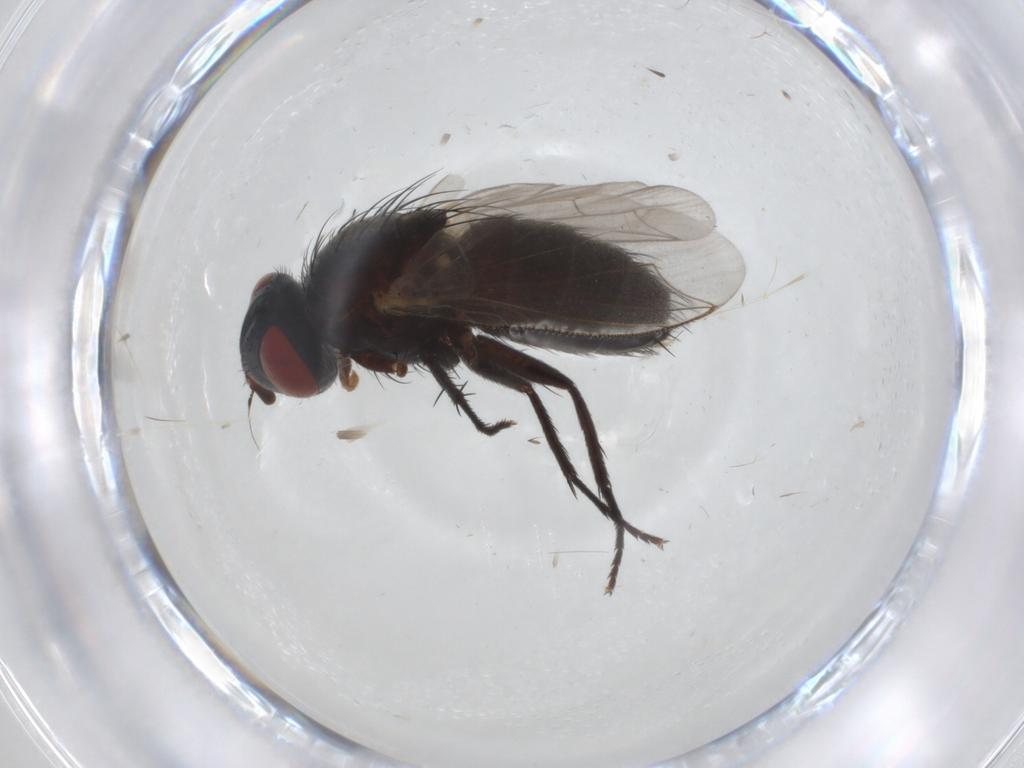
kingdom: Animalia
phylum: Arthropoda
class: Insecta
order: Diptera
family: Sarcophagidae
